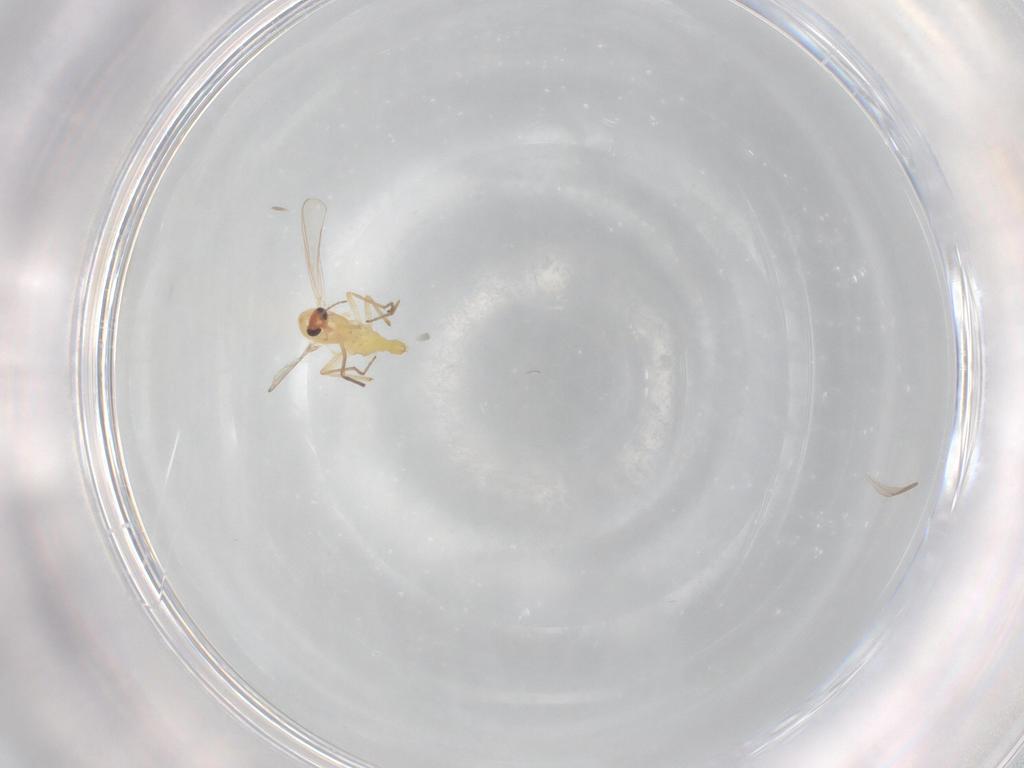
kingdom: Animalia
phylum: Arthropoda
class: Insecta
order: Diptera
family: Chironomidae
